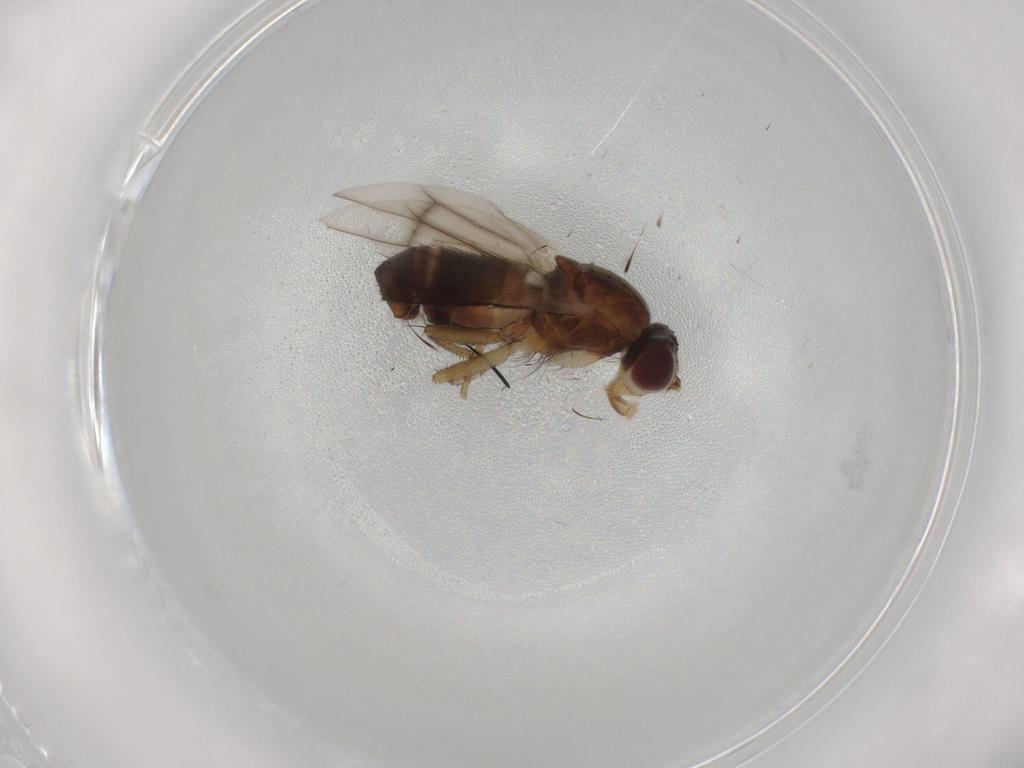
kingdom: Animalia
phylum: Arthropoda
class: Insecta
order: Diptera
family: Heleomyzidae
